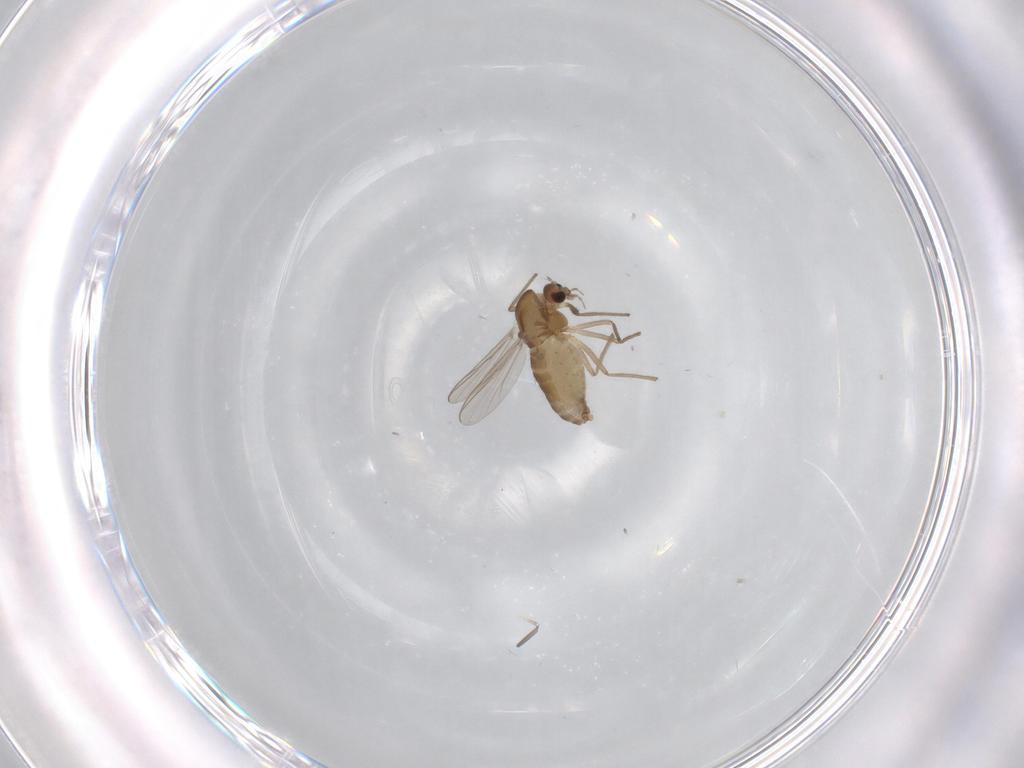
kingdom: Animalia
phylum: Arthropoda
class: Insecta
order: Diptera
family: Chironomidae
